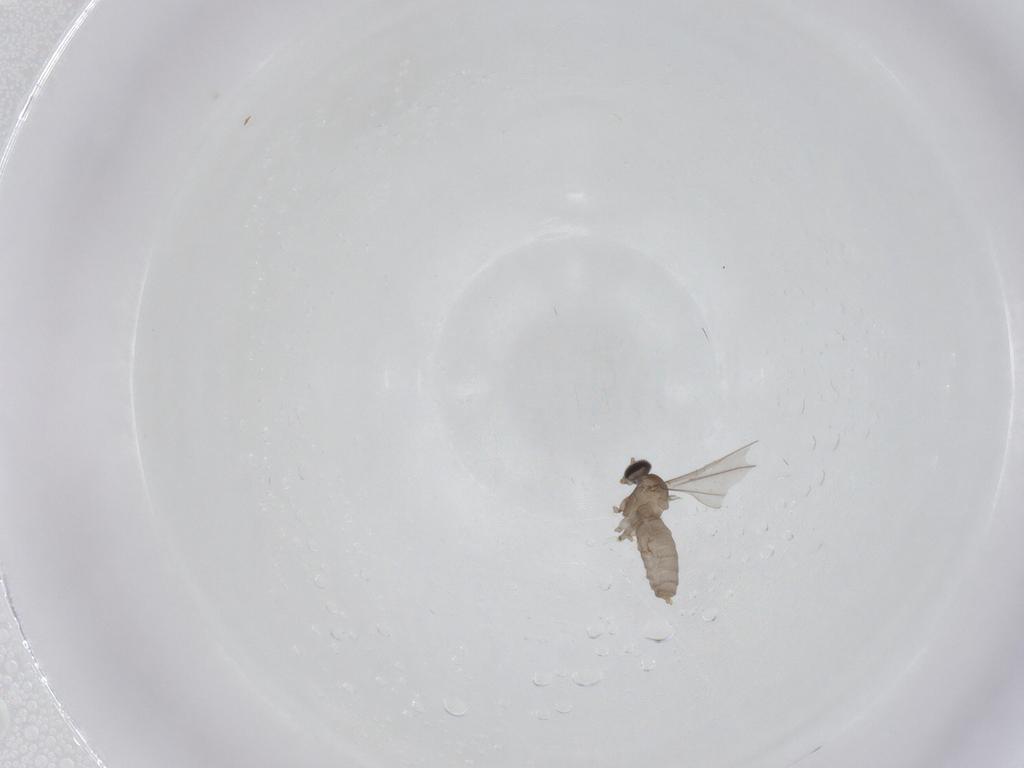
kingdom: Animalia
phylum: Arthropoda
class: Insecta
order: Diptera
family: Cecidomyiidae
